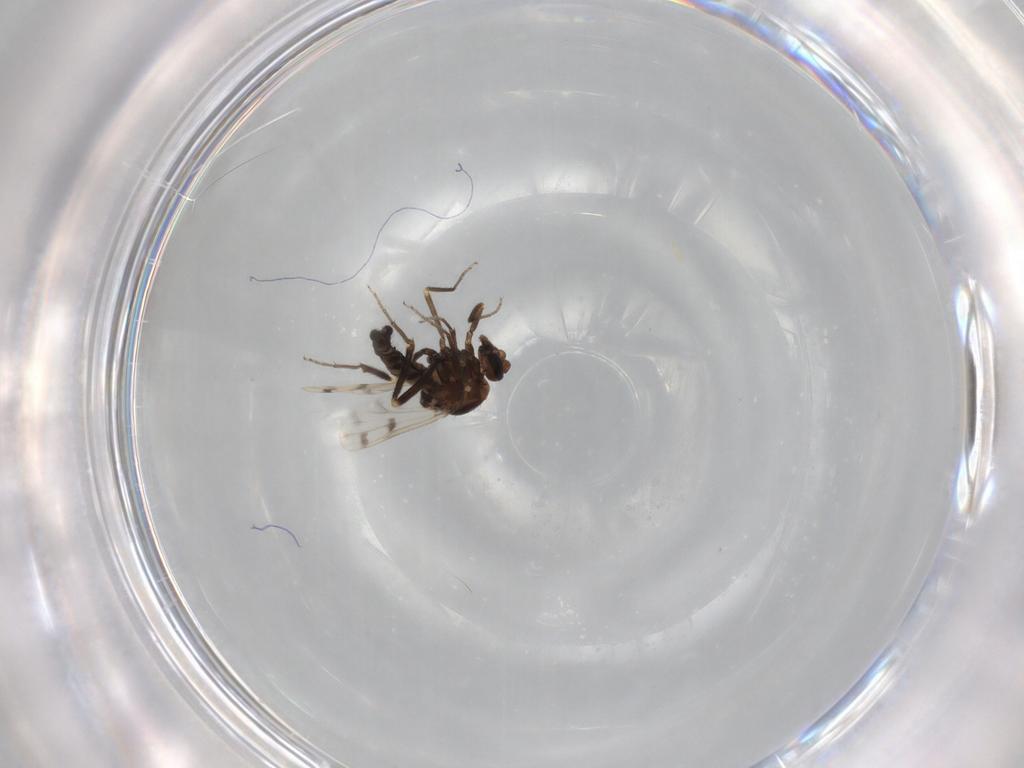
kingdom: Animalia
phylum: Arthropoda
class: Insecta
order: Diptera
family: Ceratopogonidae
